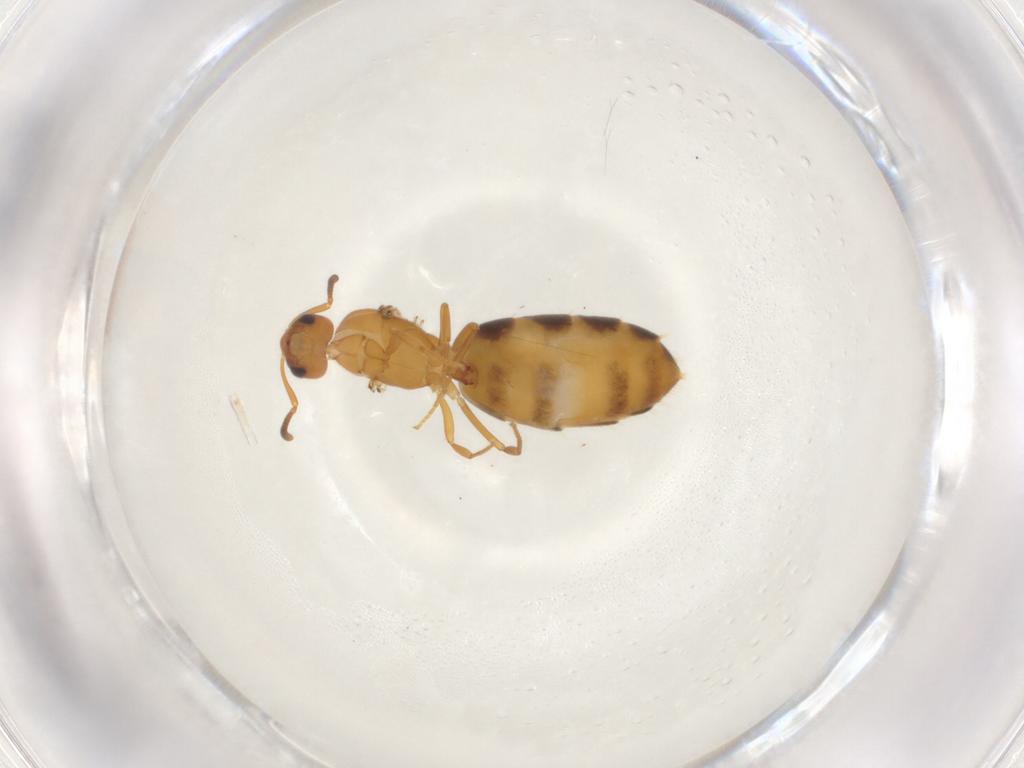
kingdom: Animalia
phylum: Arthropoda
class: Insecta
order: Hymenoptera
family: Formicidae
